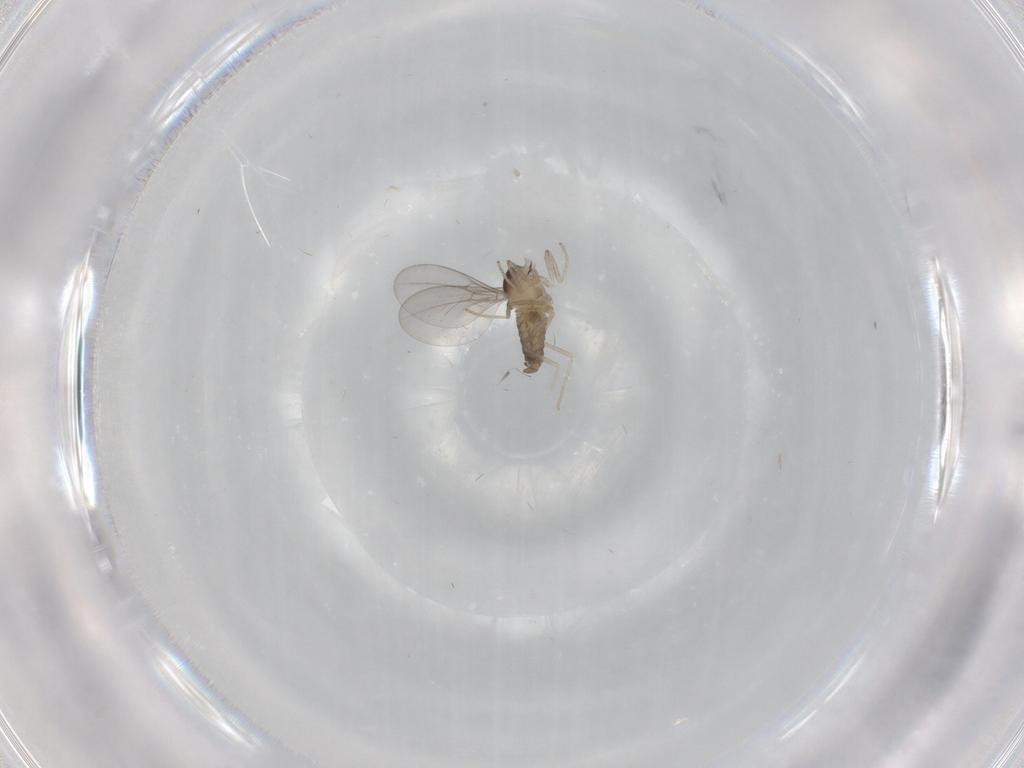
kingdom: Animalia
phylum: Arthropoda
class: Insecta
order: Diptera
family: Cecidomyiidae
